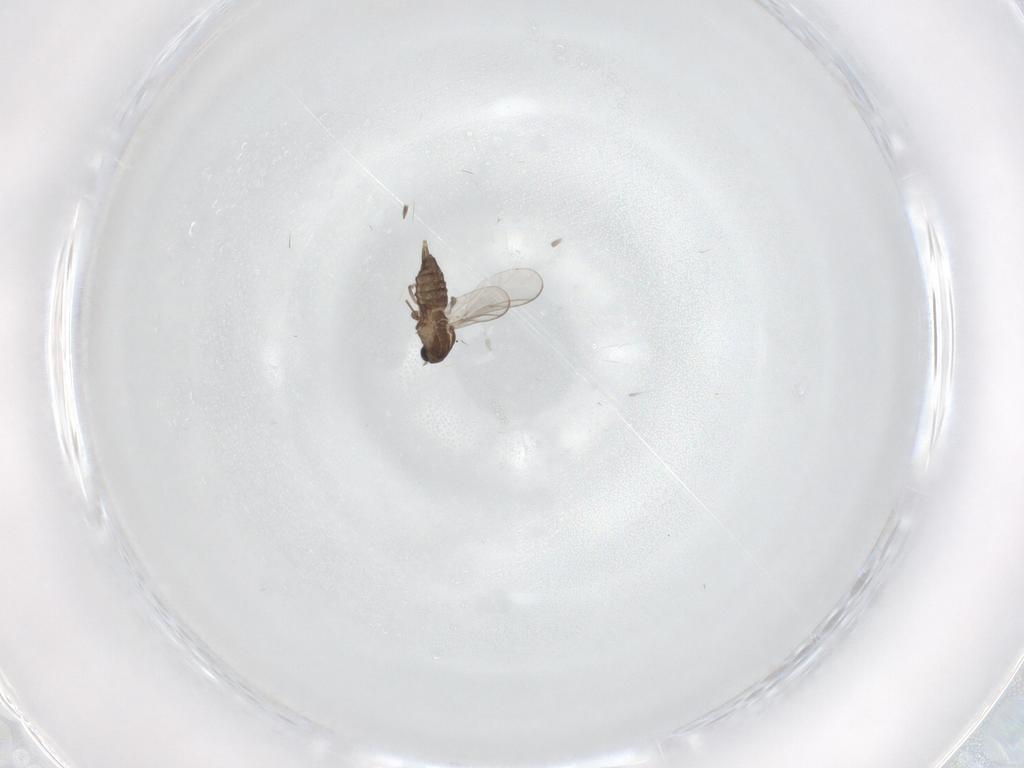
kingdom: Animalia
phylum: Arthropoda
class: Insecta
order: Diptera
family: Chironomidae
